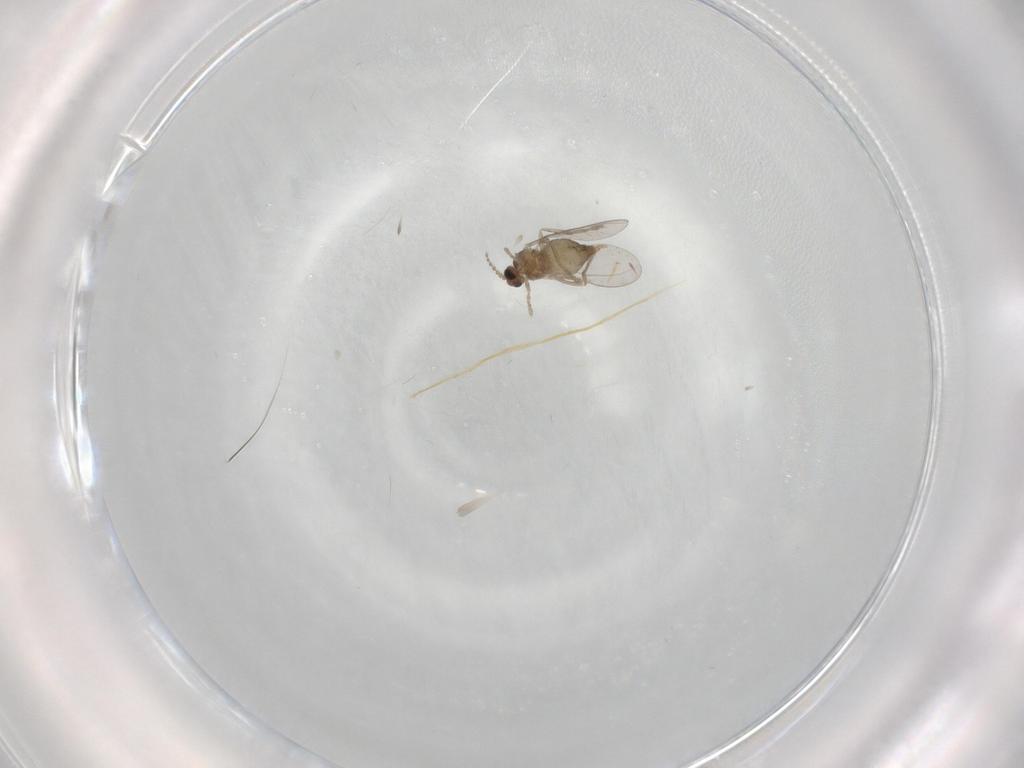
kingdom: Animalia
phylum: Arthropoda
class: Insecta
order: Diptera
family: Cecidomyiidae
